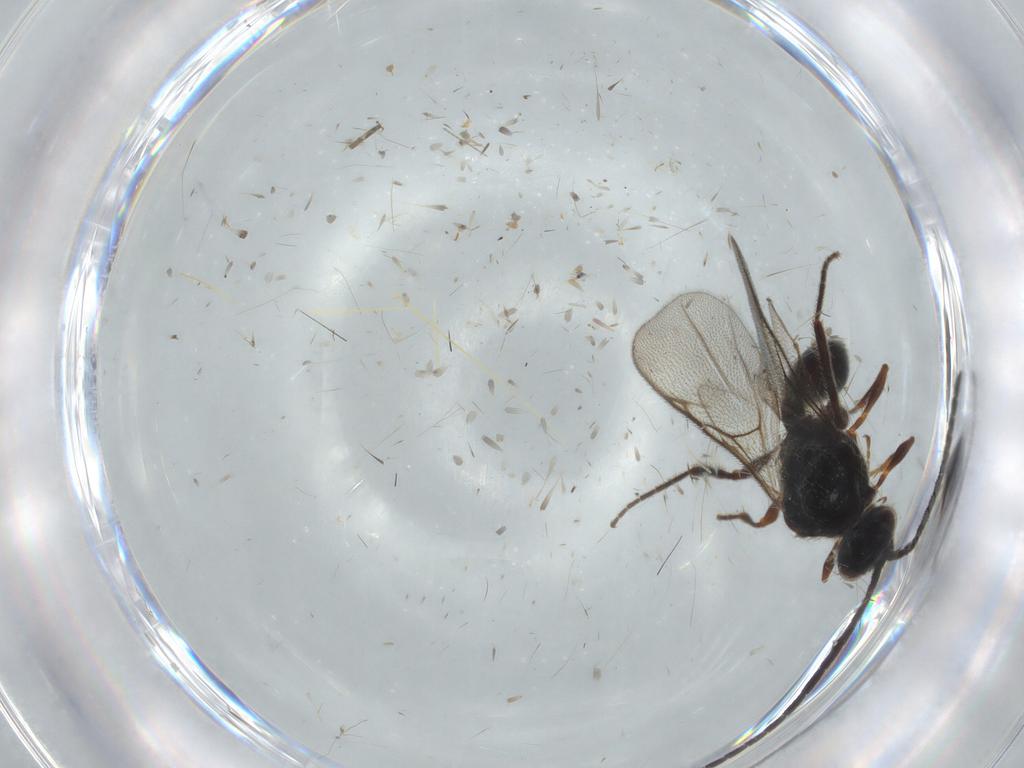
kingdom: Animalia
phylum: Arthropoda
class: Insecta
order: Hymenoptera
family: Diapriidae
